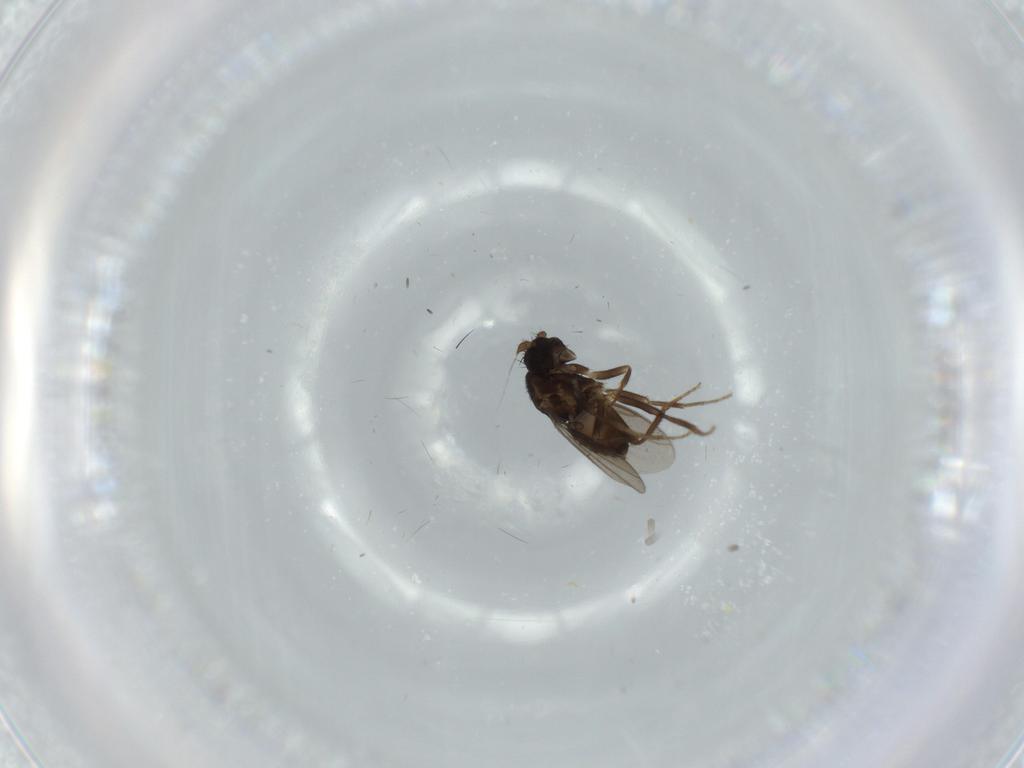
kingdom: Animalia
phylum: Arthropoda
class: Insecta
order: Diptera
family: Sphaeroceridae
